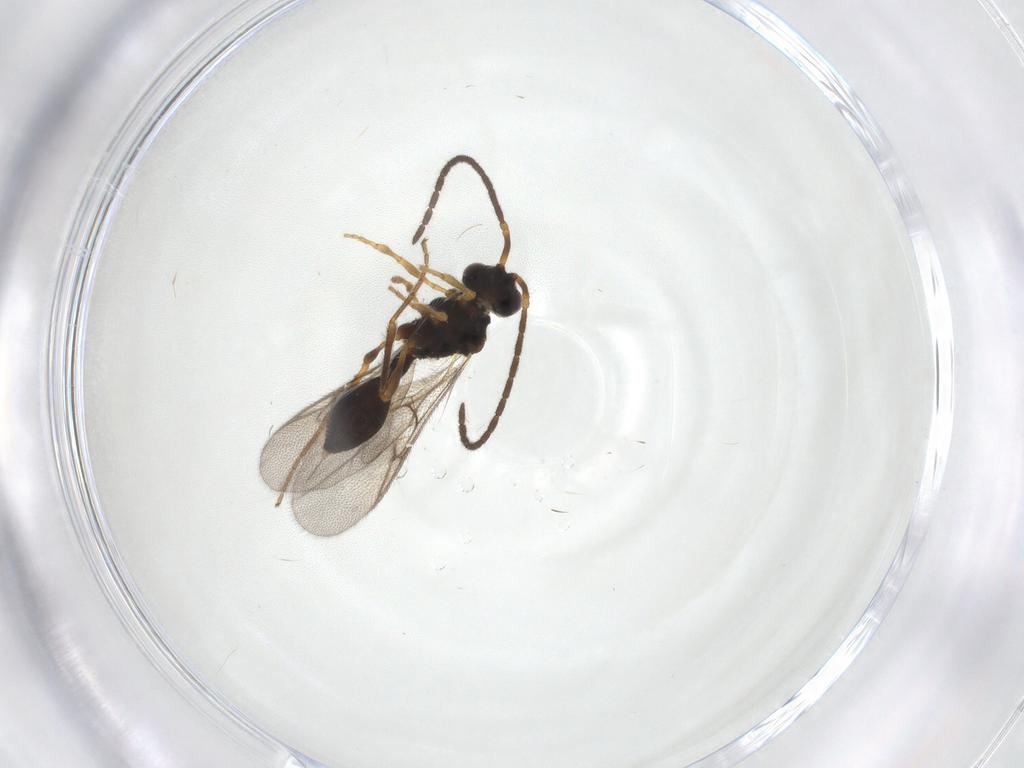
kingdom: Animalia
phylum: Arthropoda
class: Insecta
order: Hymenoptera
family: Diapriidae
